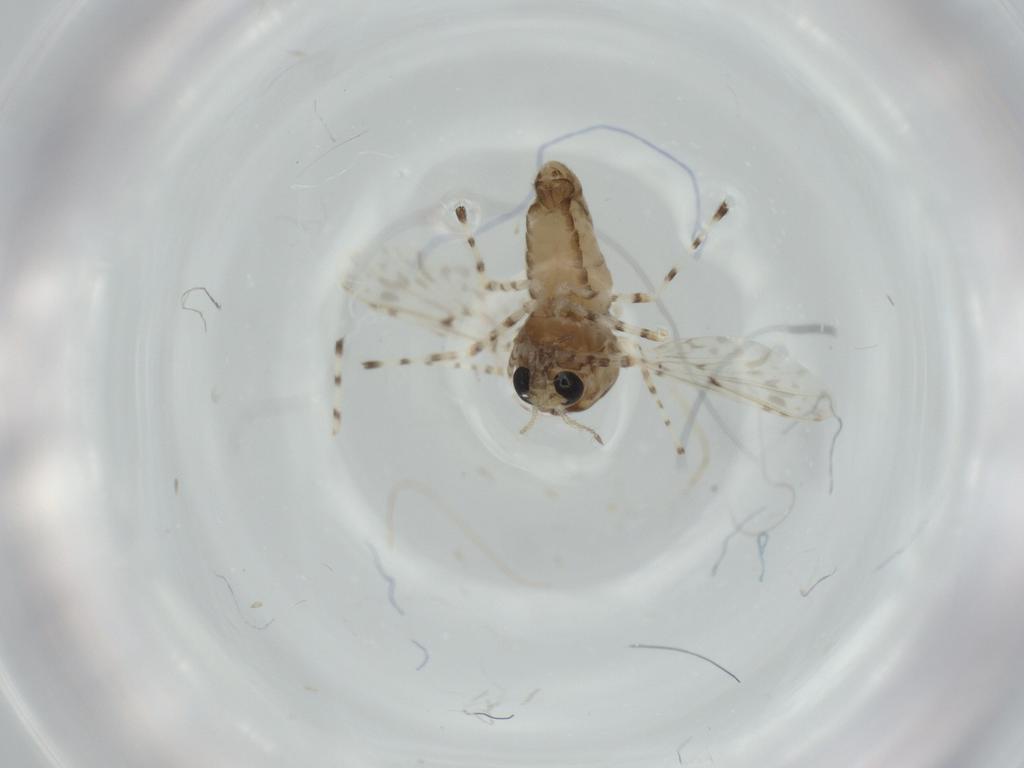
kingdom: Animalia
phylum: Arthropoda
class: Insecta
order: Diptera
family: Chironomidae
